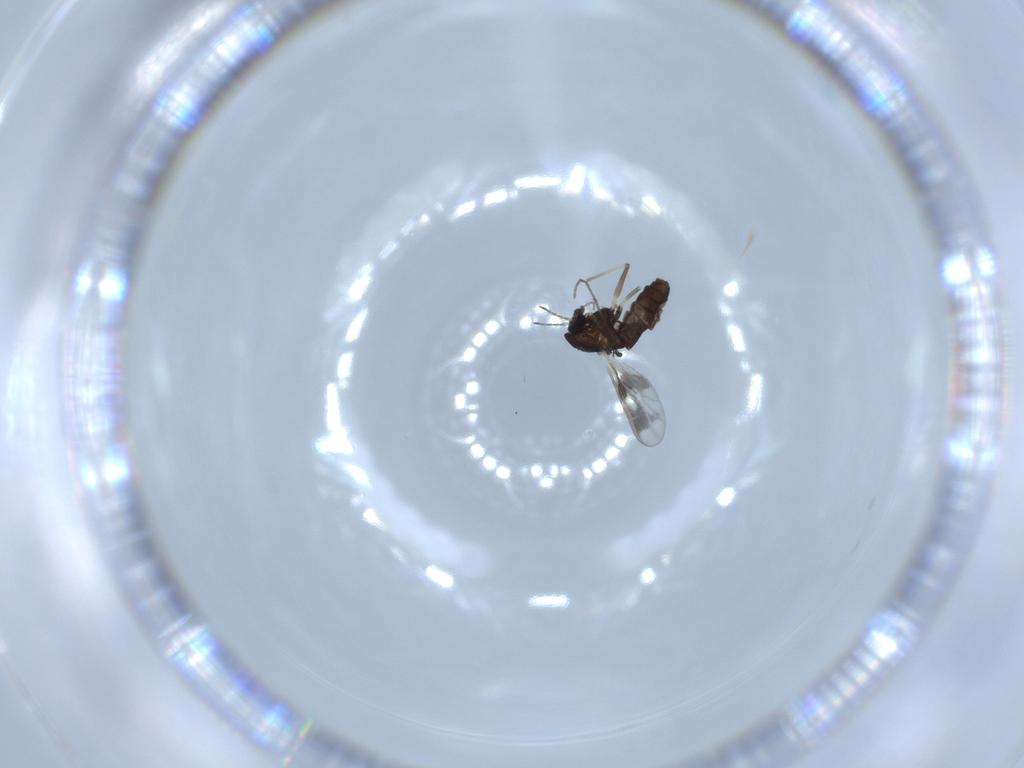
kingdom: Animalia
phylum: Arthropoda
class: Insecta
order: Diptera
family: Chironomidae
